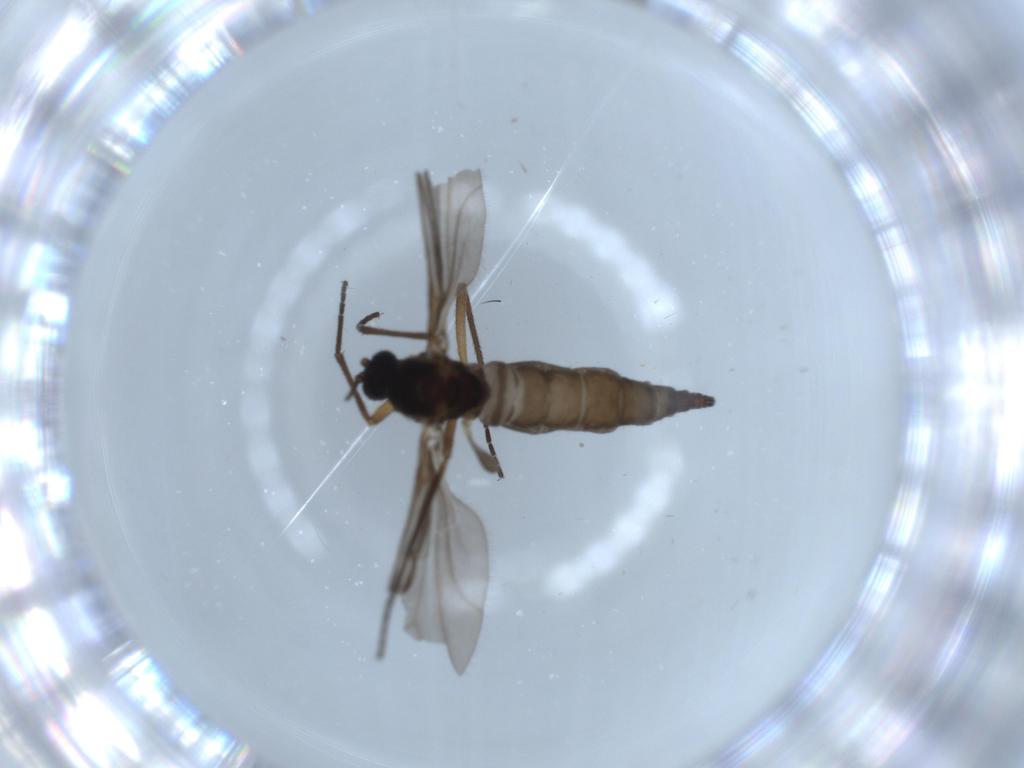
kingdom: Animalia
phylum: Arthropoda
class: Insecta
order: Diptera
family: Sciaridae
